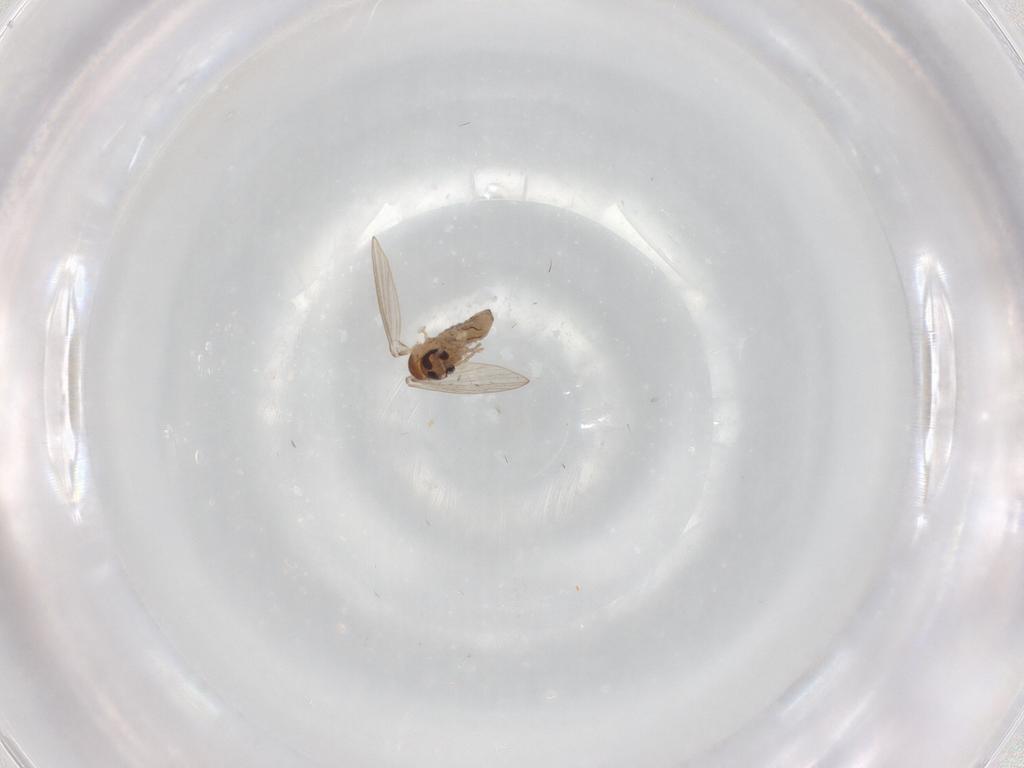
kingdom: Animalia
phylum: Arthropoda
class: Insecta
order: Diptera
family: Psychodidae
